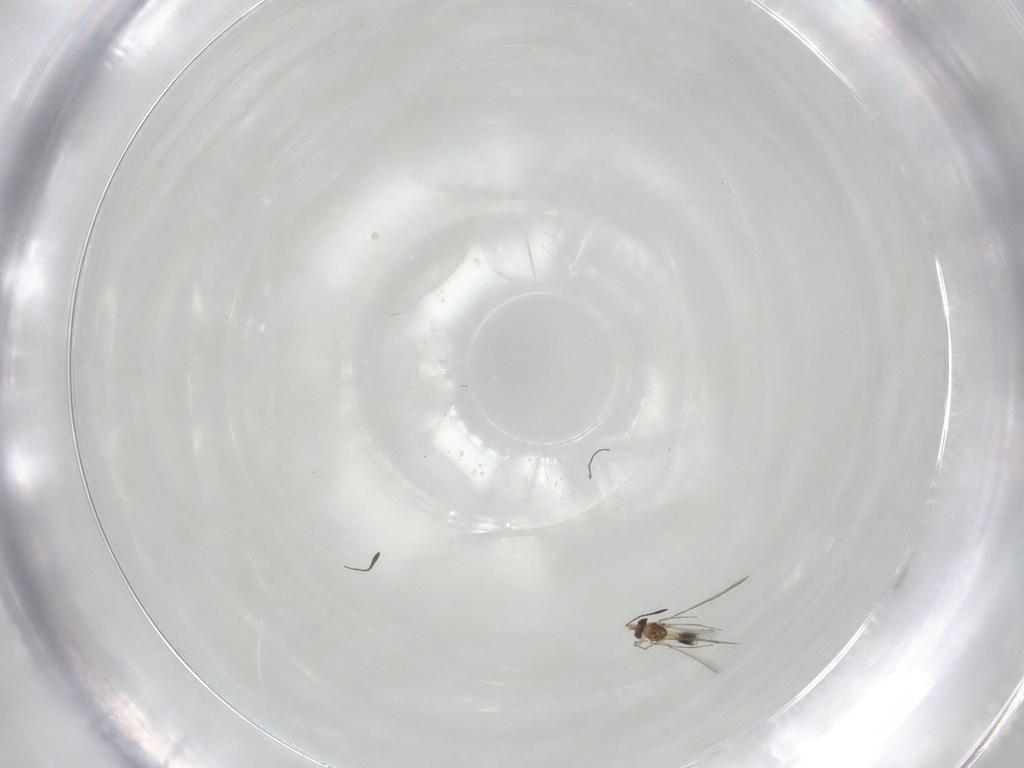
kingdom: Animalia
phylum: Arthropoda
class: Insecta
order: Hymenoptera
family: Mymaridae
